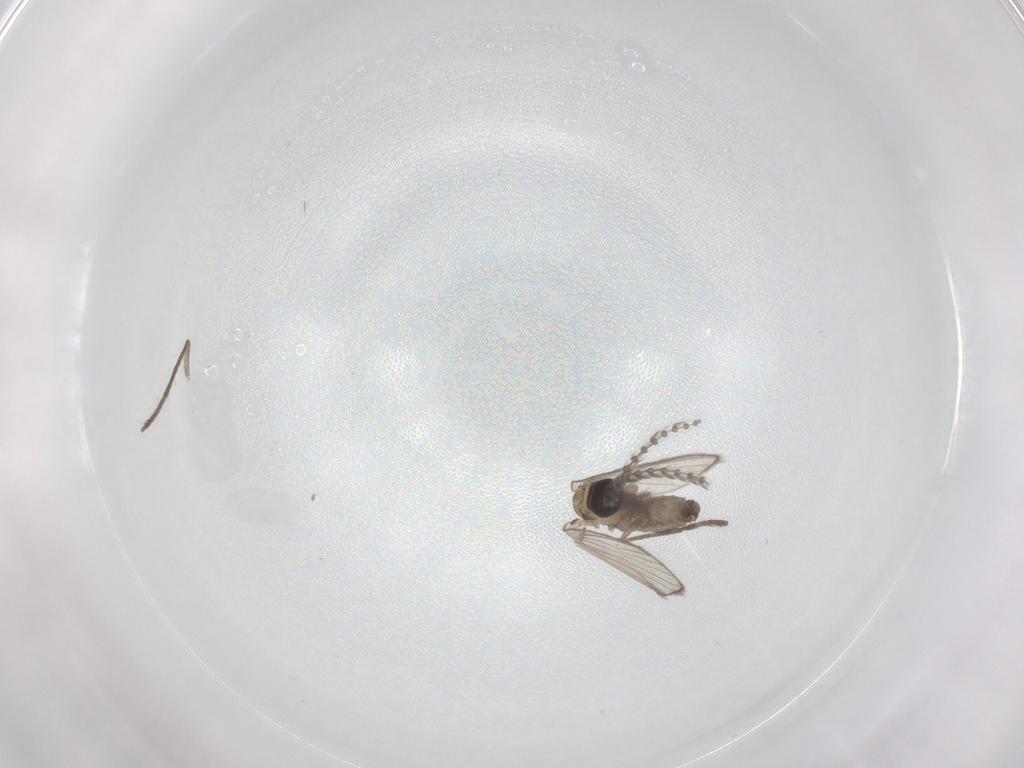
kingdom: Animalia
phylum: Arthropoda
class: Insecta
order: Diptera
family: Psychodidae
